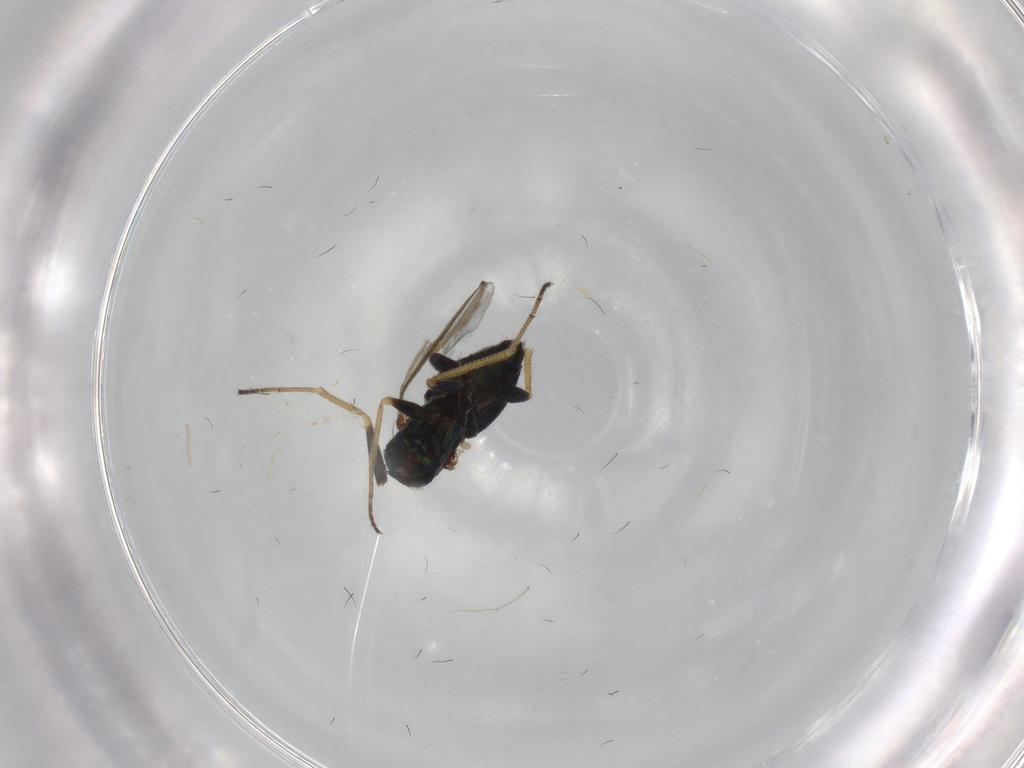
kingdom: Animalia
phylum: Arthropoda
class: Insecta
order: Diptera
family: Dolichopodidae
